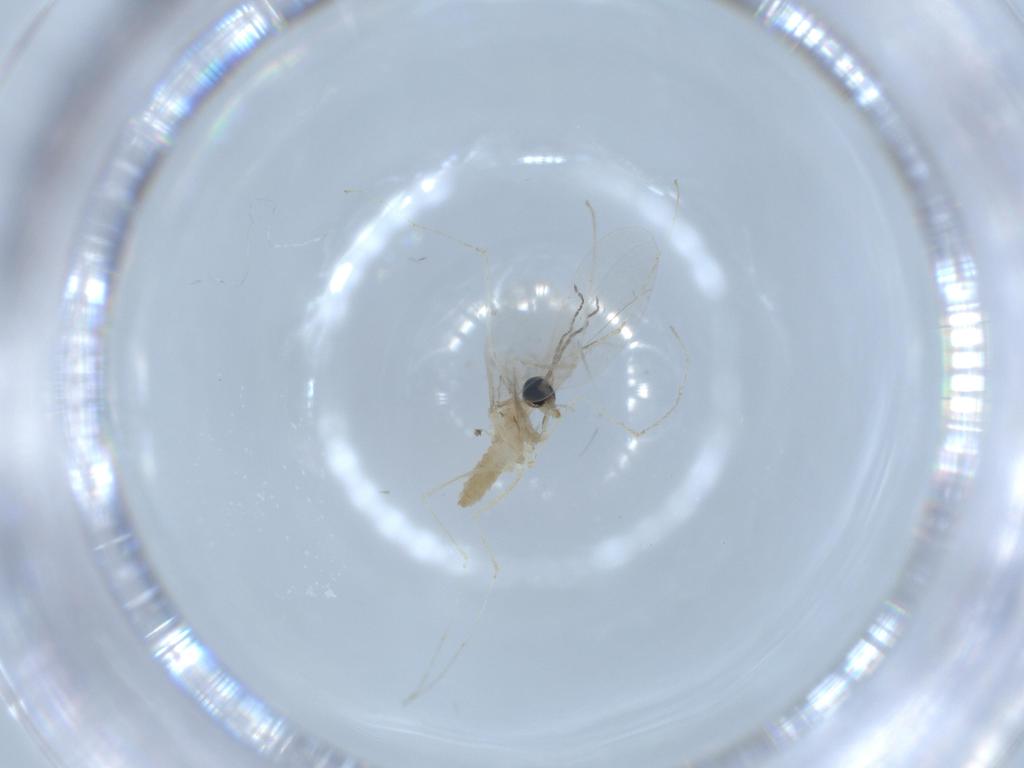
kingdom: Animalia
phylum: Arthropoda
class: Insecta
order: Diptera
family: Cecidomyiidae
